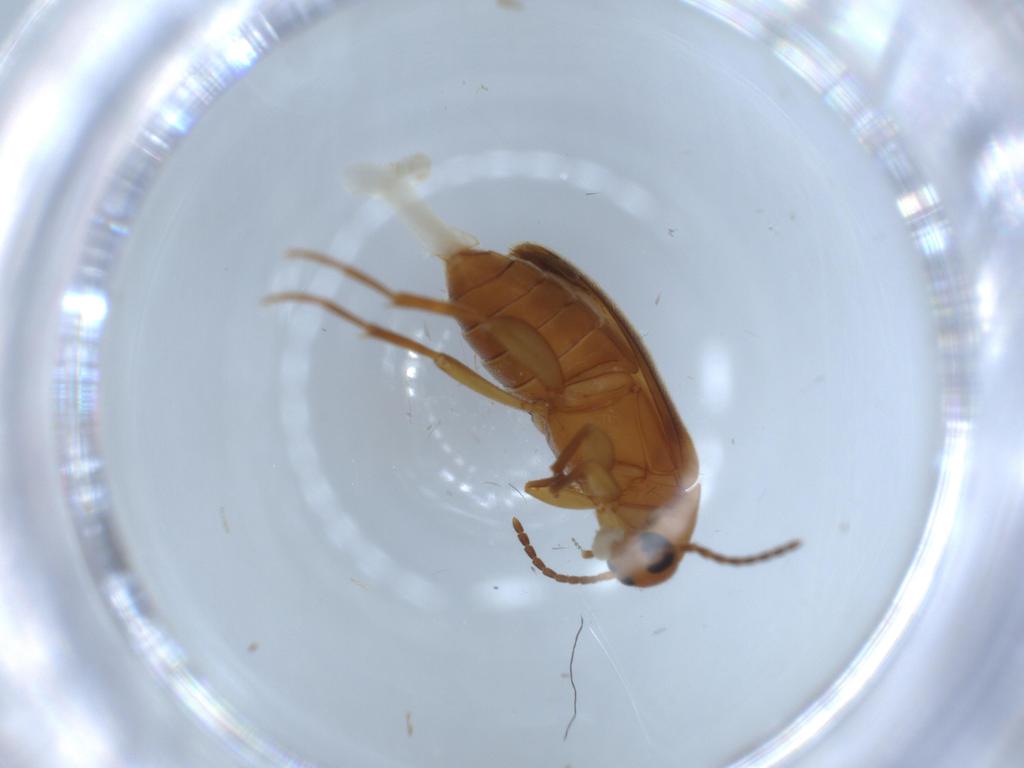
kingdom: Animalia
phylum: Arthropoda
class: Insecta
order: Coleoptera
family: Scraptiidae
